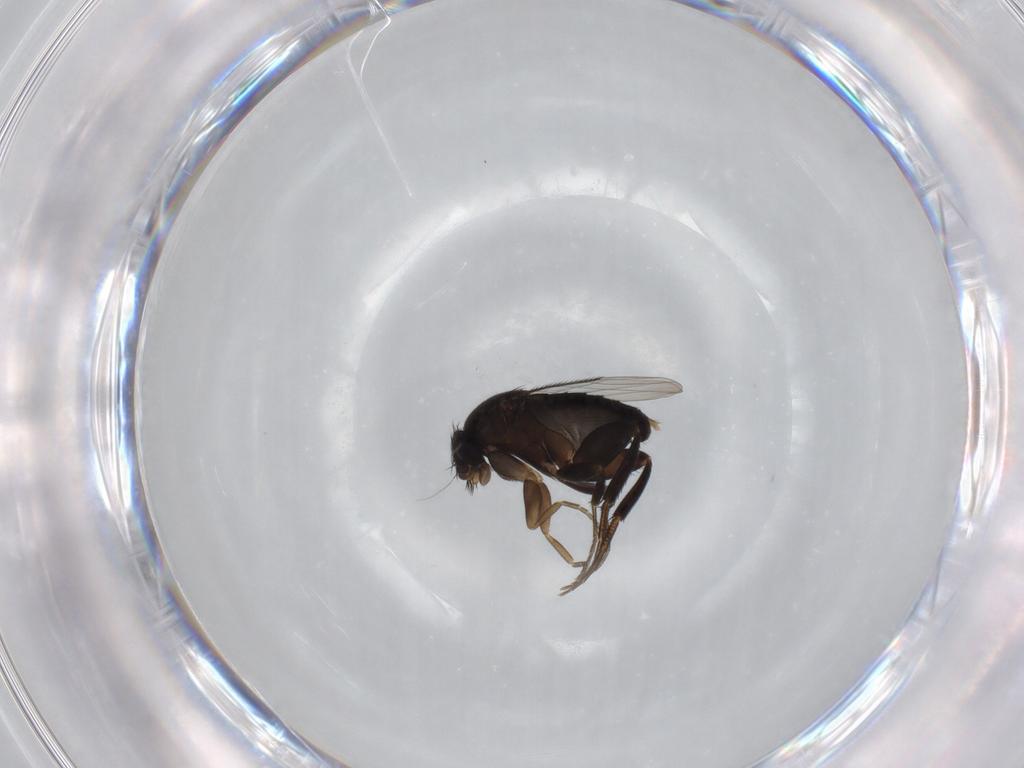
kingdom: Animalia
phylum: Arthropoda
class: Insecta
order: Diptera
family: Phoridae
